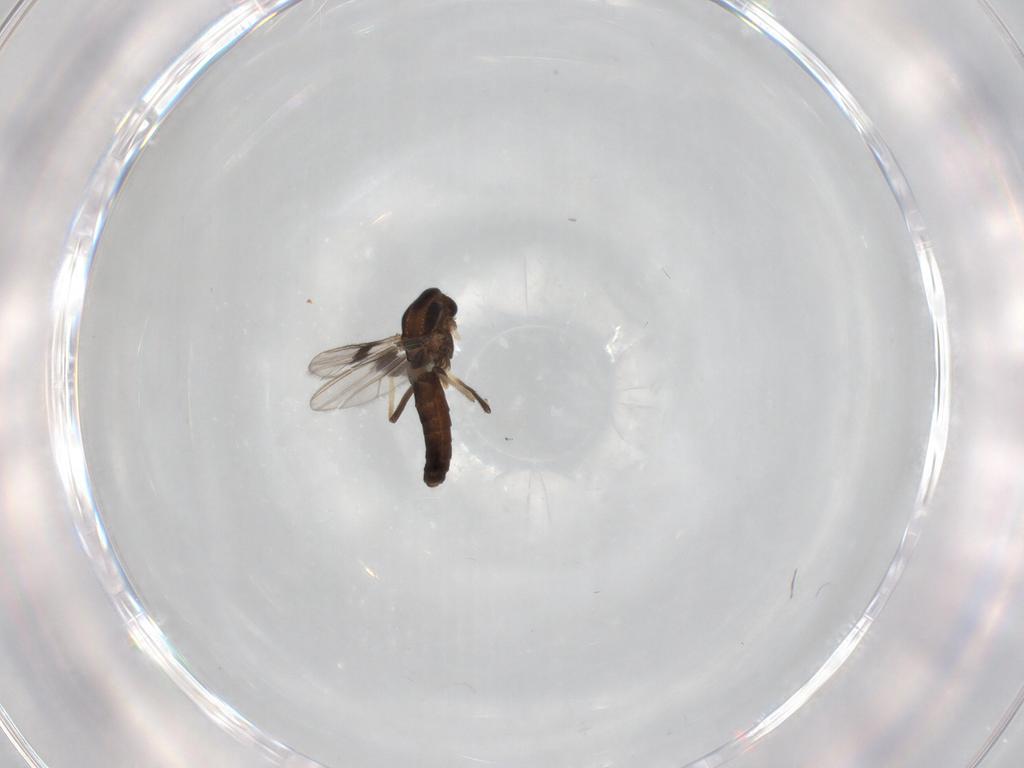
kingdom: Animalia
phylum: Arthropoda
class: Insecta
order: Diptera
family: Chironomidae
